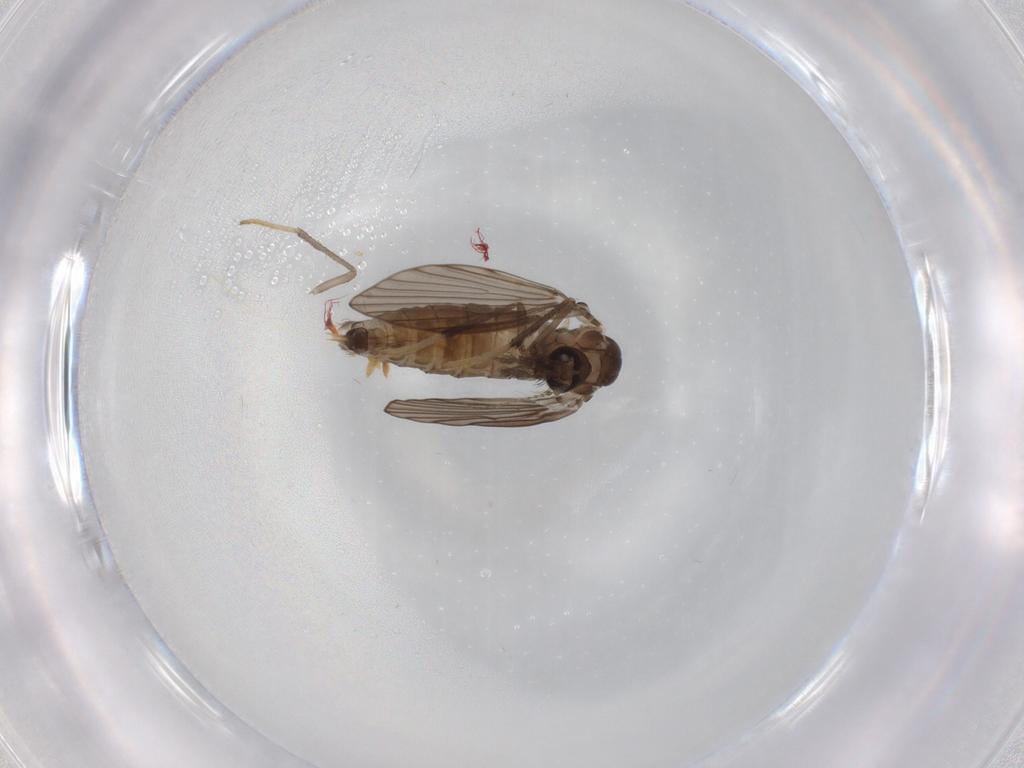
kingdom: Animalia
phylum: Arthropoda
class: Insecta
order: Diptera
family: Psychodidae
